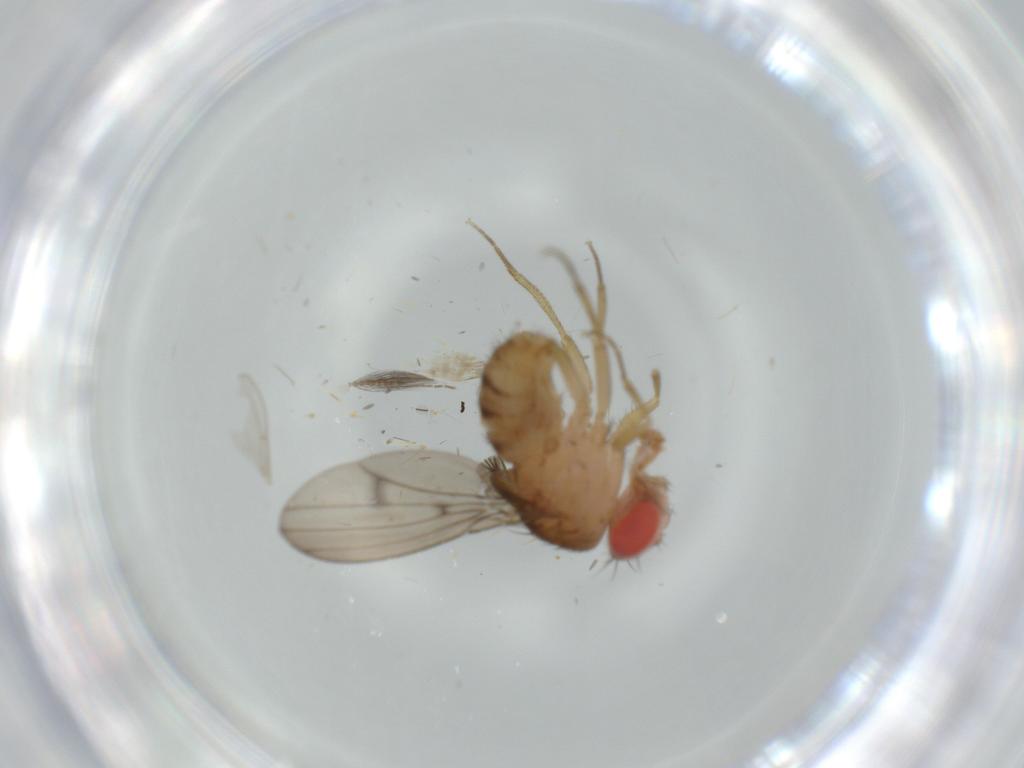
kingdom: Animalia
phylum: Arthropoda
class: Insecta
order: Diptera
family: Drosophilidae
